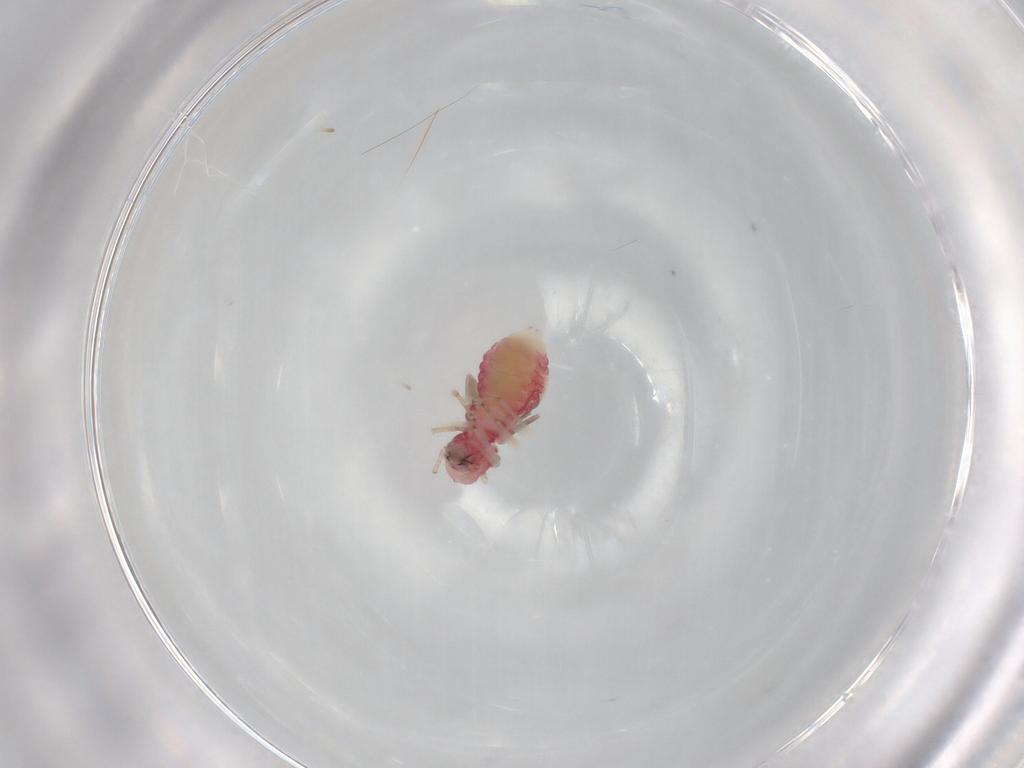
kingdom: Animalia
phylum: Arthropoda
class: Insecta
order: Psocodea
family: Caeciliusidae
